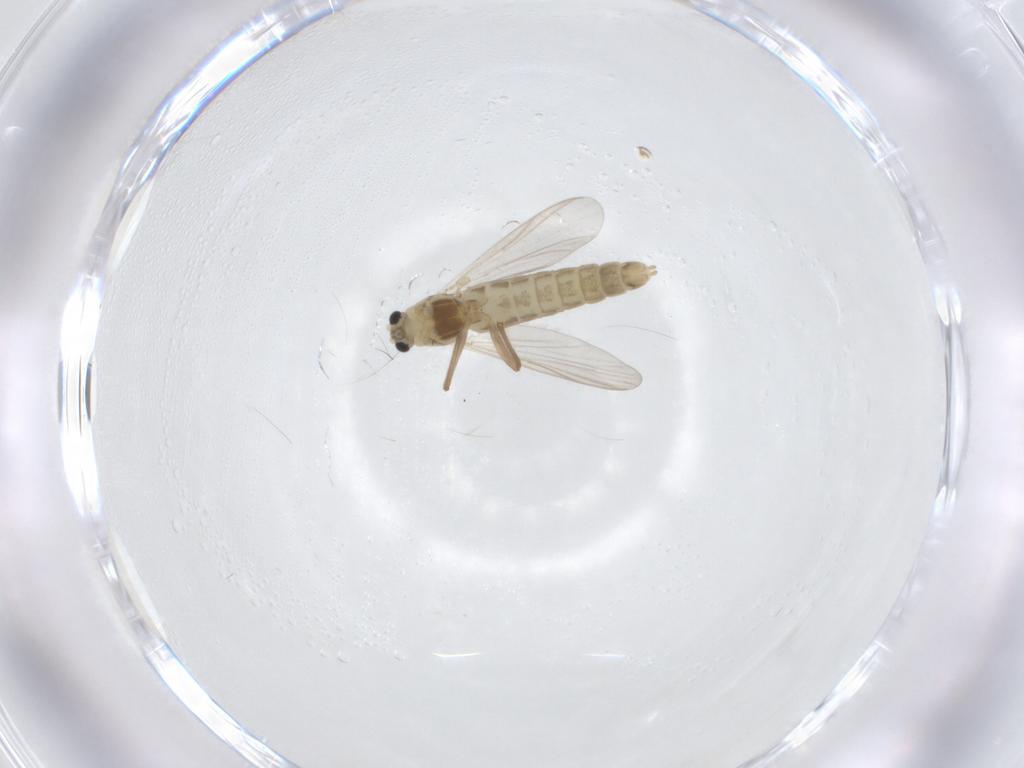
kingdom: Animalia
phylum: Arthropoda
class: Insecta
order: Diptera
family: Chironomidae
